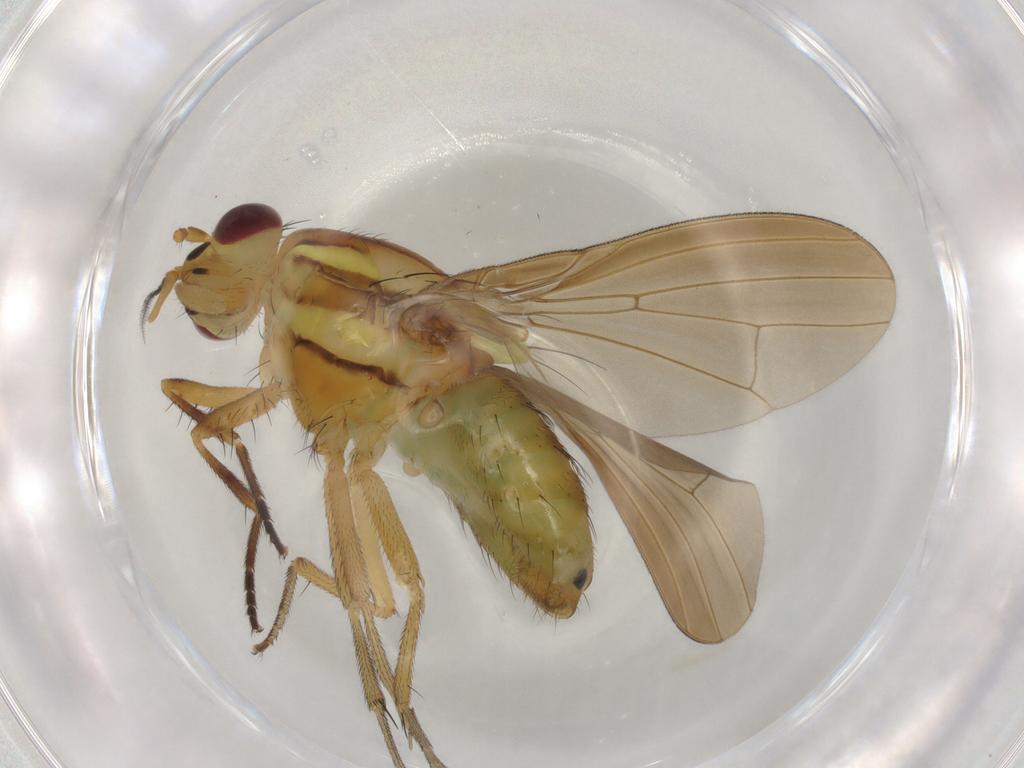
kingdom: Animalia
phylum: Arthropoda
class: Insecta
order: Diptera
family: Lauxaniidae
